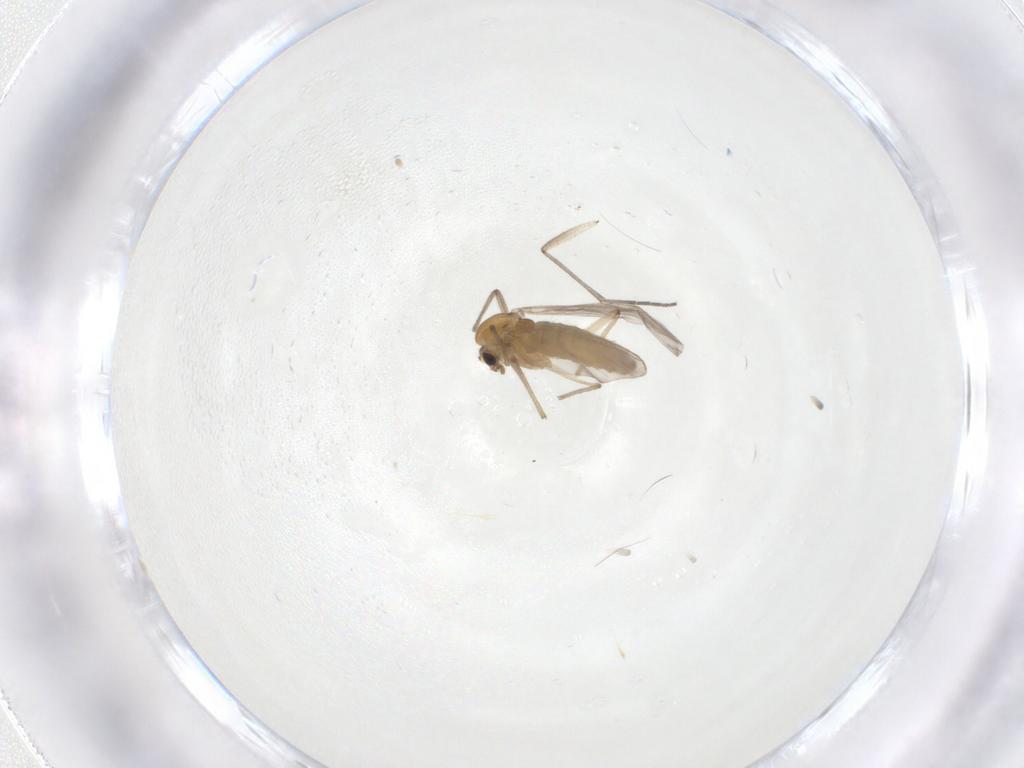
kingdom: Animalia
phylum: Arthropoda
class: Insecta
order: Diptera
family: Chironomidae
